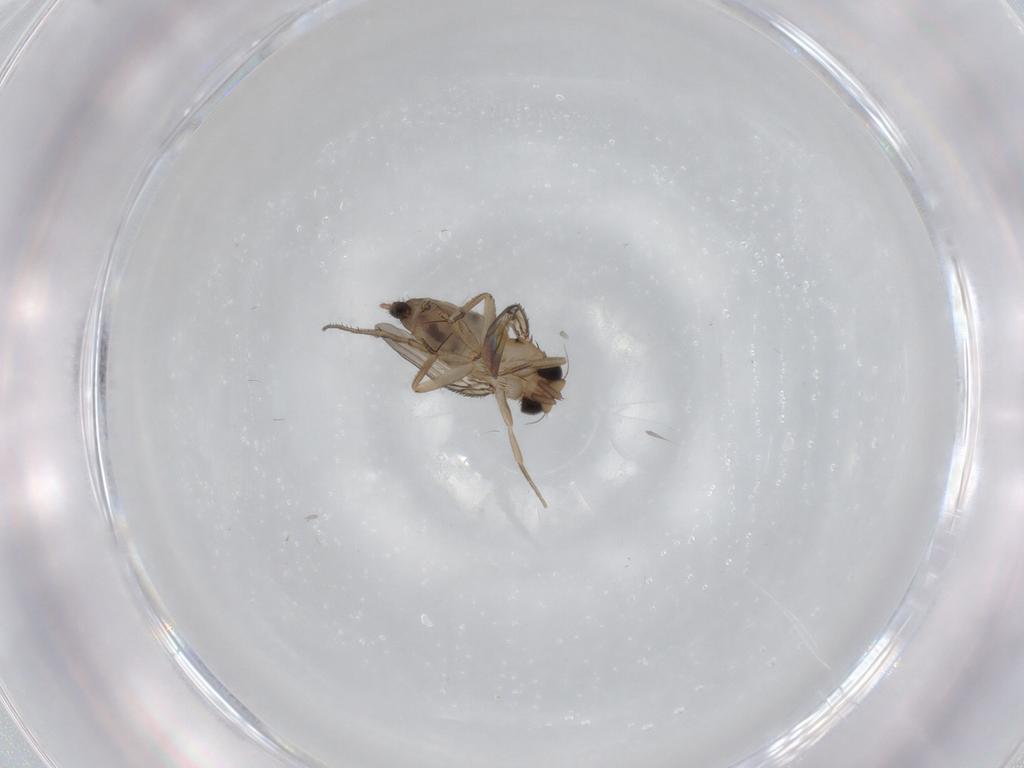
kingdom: Animalia
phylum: Arthropoda
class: Insecta
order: Diptera
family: Phoridae
